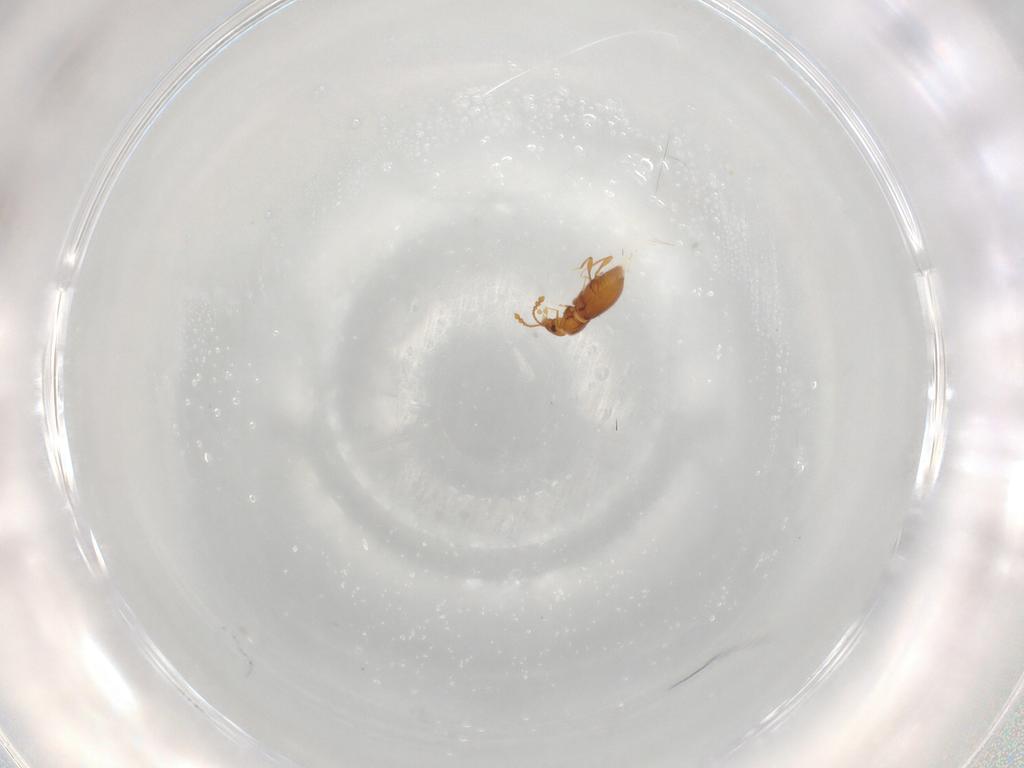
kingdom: Animalia
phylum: Arthropoda
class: Insecta
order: Coleoptera
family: Staphylinidae
